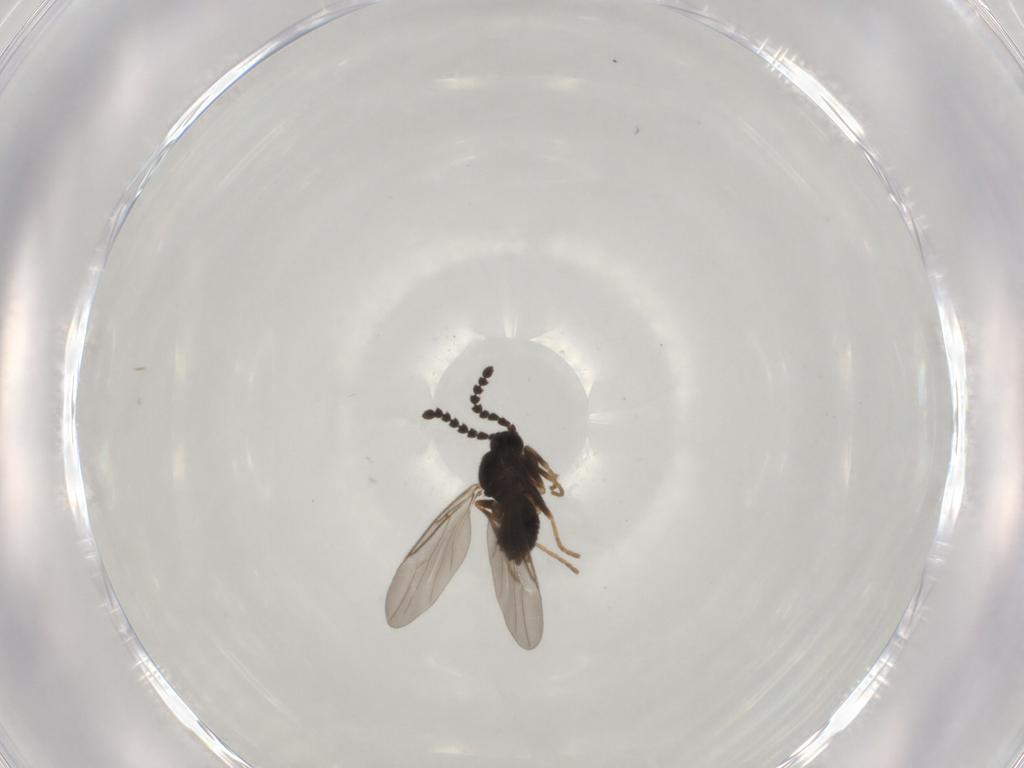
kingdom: Animalia
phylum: Arthropoda
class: Insecta
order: Diptera
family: Scatopsidae
